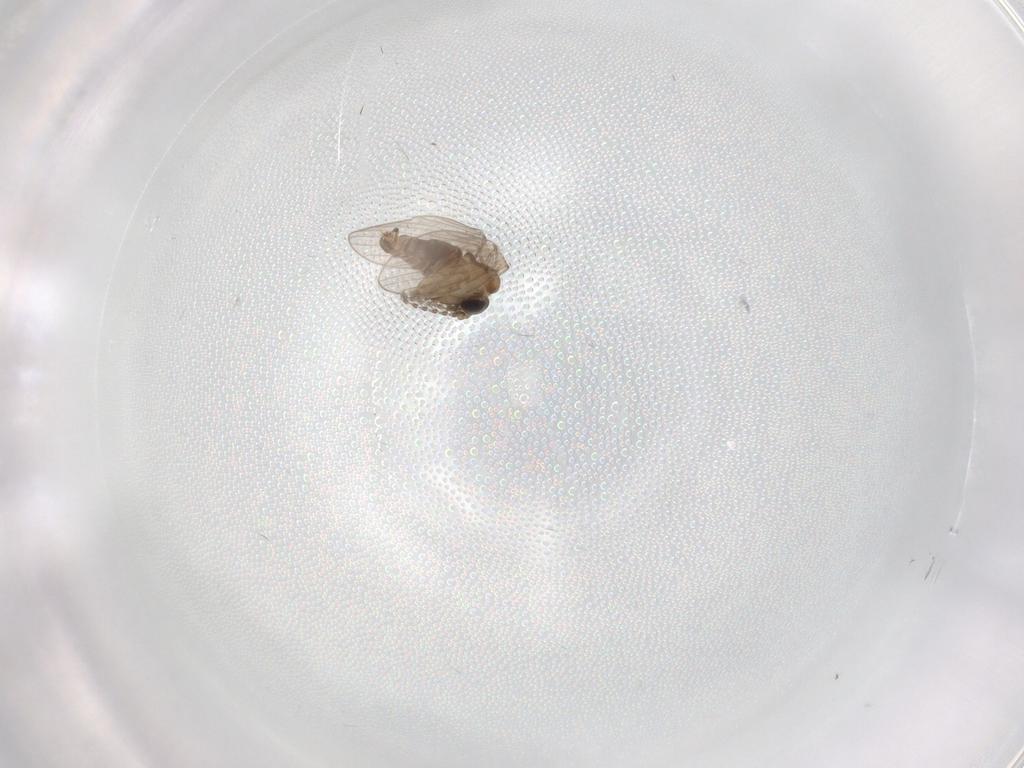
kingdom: Animalia
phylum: Arthropoda
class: Insecta
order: Diptera
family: Psychodidae
